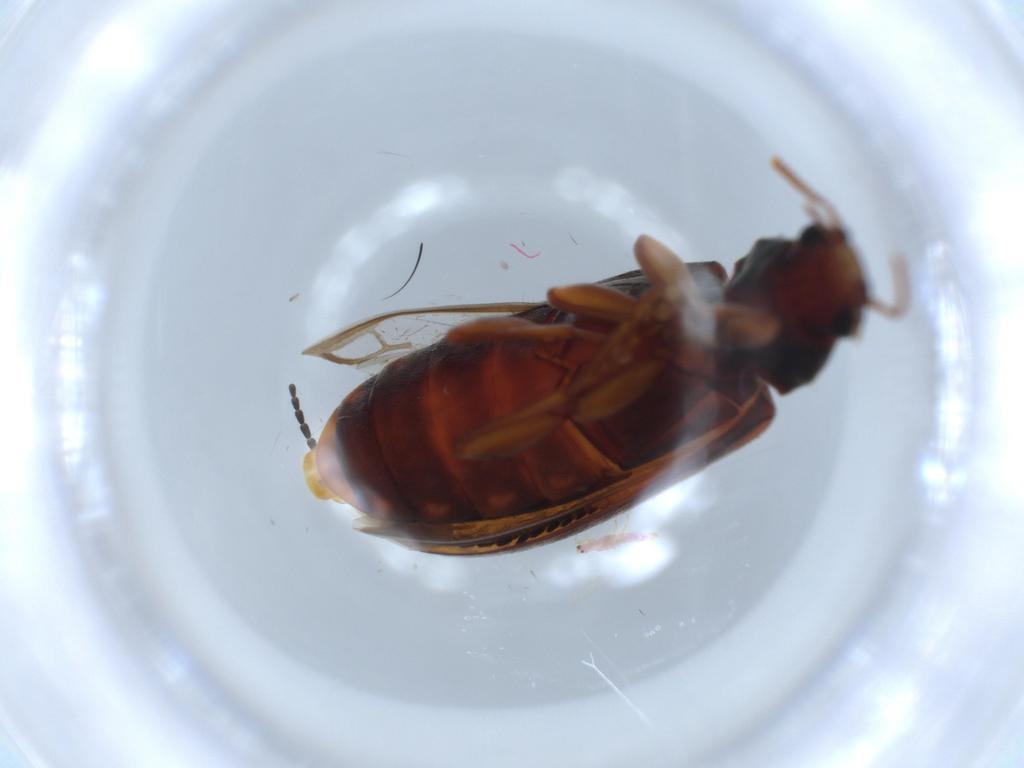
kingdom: Animalia
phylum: Arthropoda
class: Insecta
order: Coleoptera
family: Mycteridae
